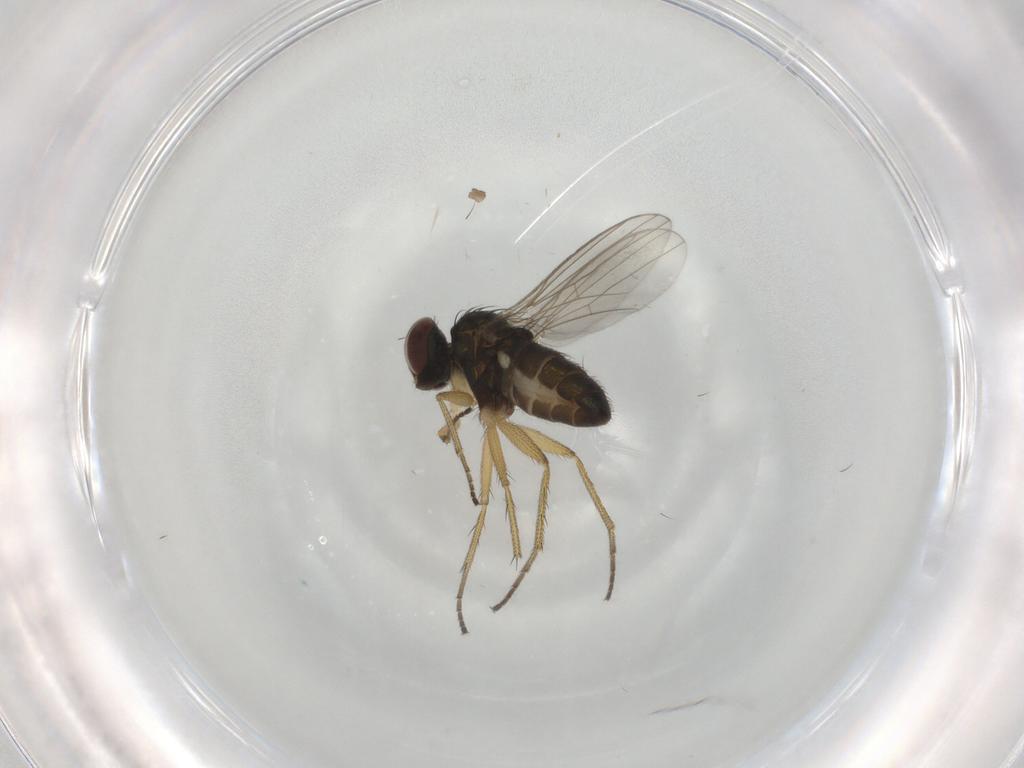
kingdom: Animalia
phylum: Arthropoda
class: Insecta
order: Diptera
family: Dolichopodidae
